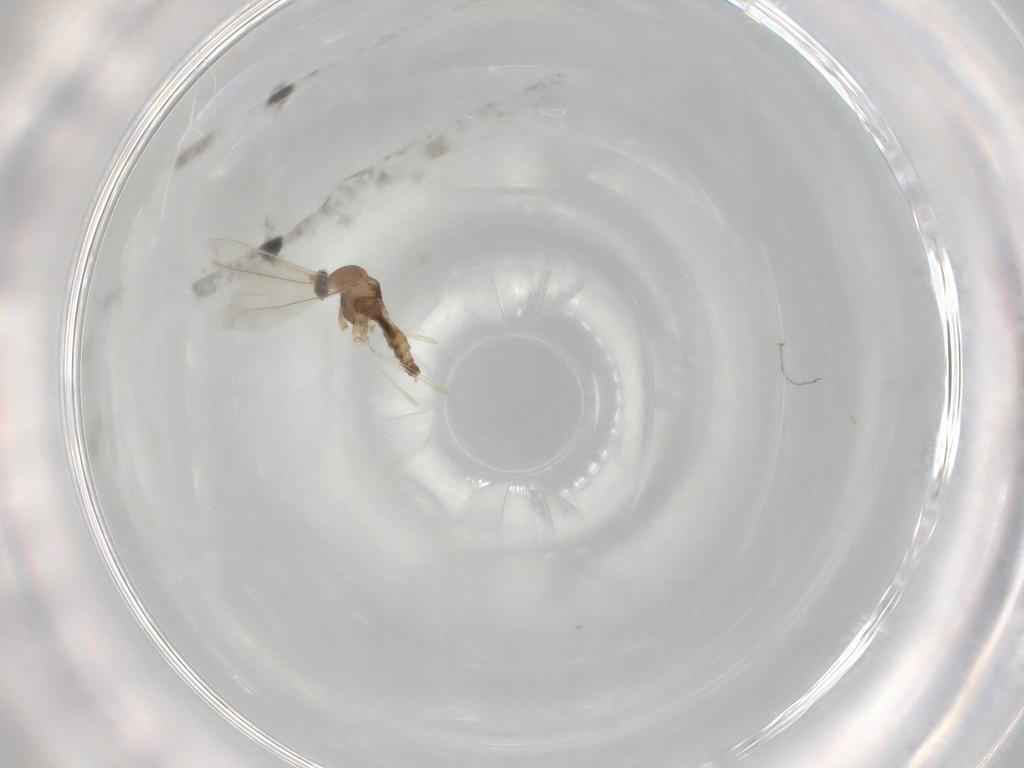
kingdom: Animalia
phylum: Arthropoda
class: Insecta
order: Diptera
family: Cecidomyiidae
